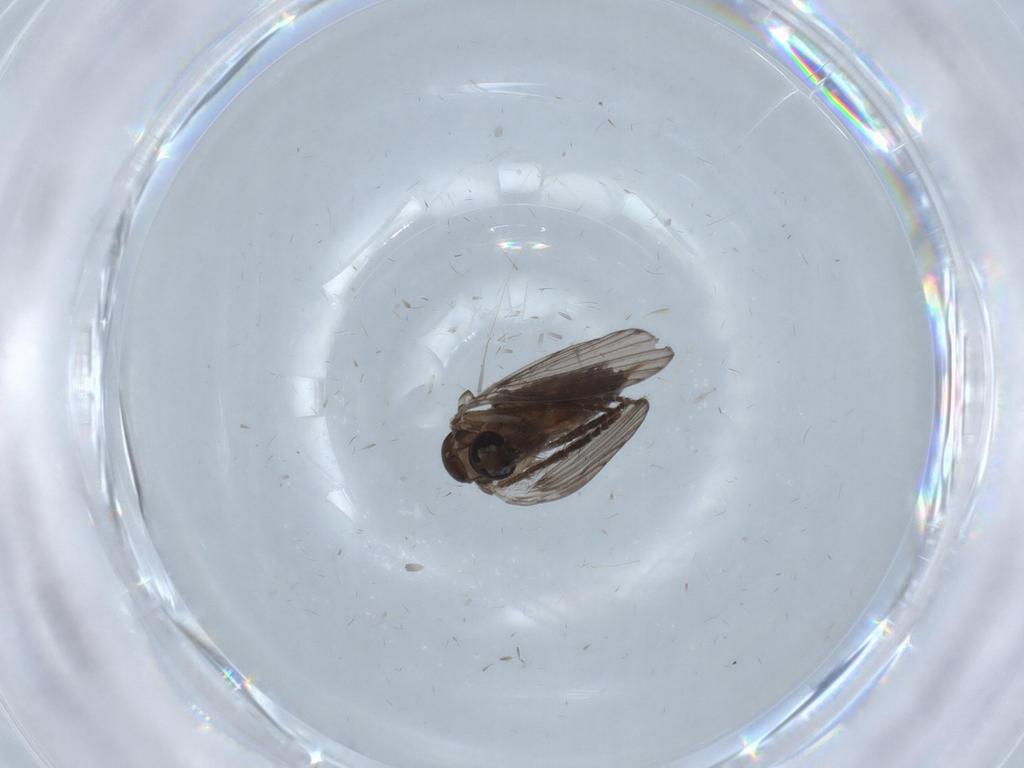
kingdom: Animalia
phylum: Arthropoda
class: Insecta
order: Diptera
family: Psychodidae
